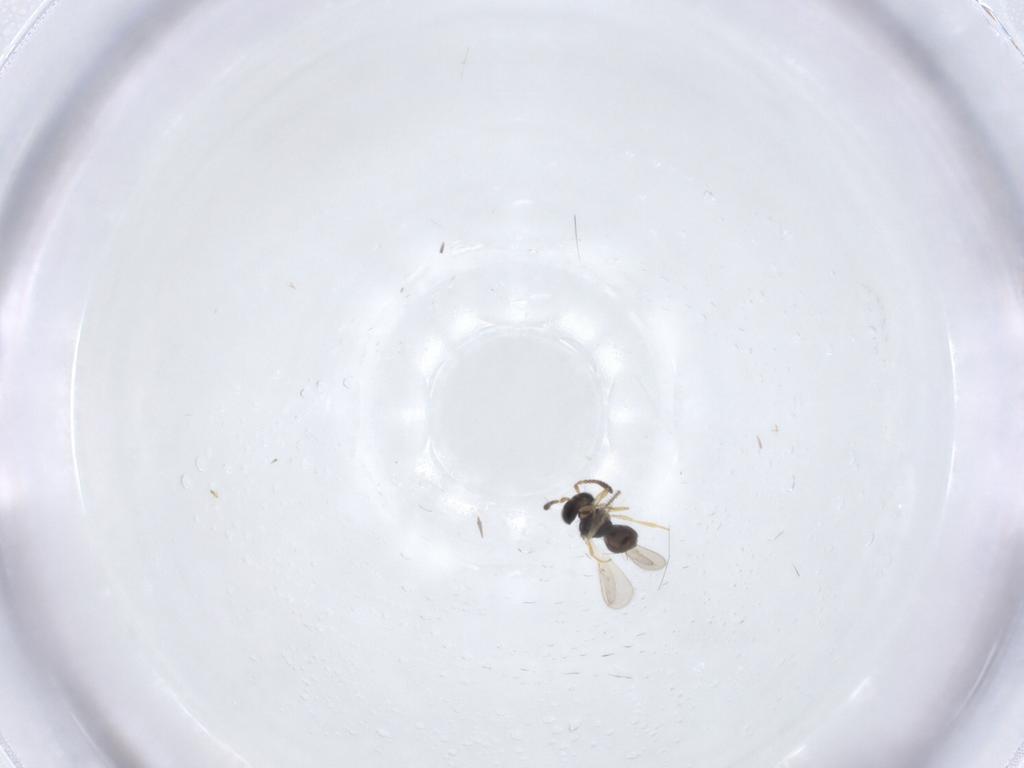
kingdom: Animalia
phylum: Arthropoda
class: Insecta
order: Hymenoptera
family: Scelionidae
